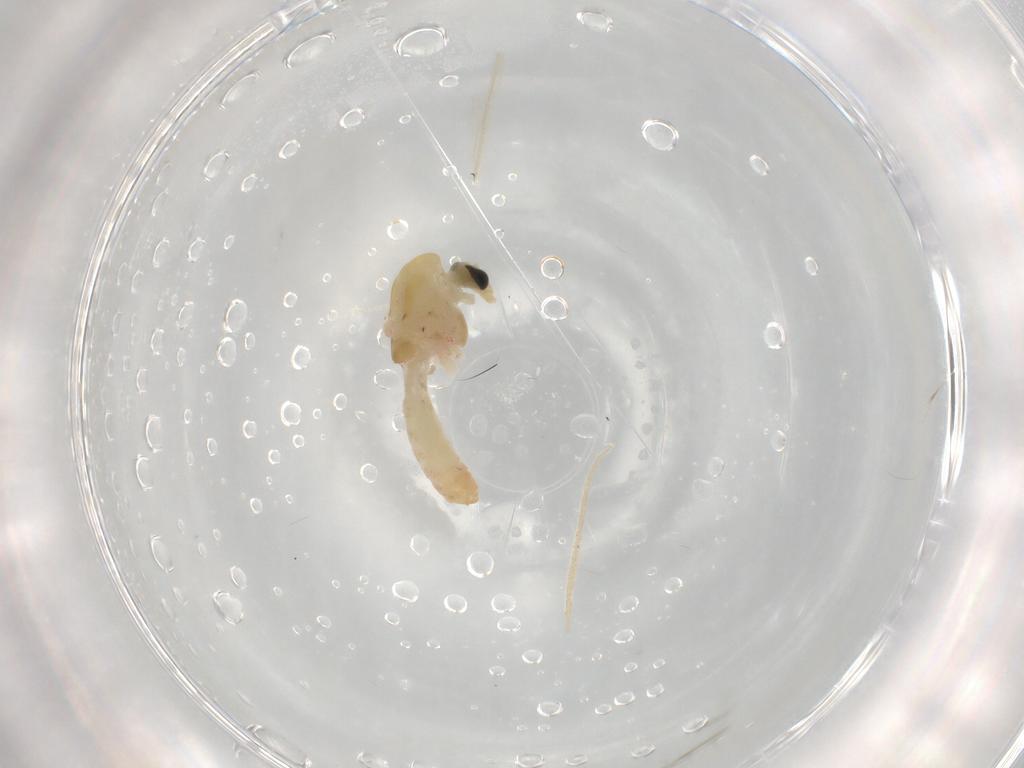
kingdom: Animalia
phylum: Arthropoda
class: Insecta
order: Diptera
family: Chironomidae
